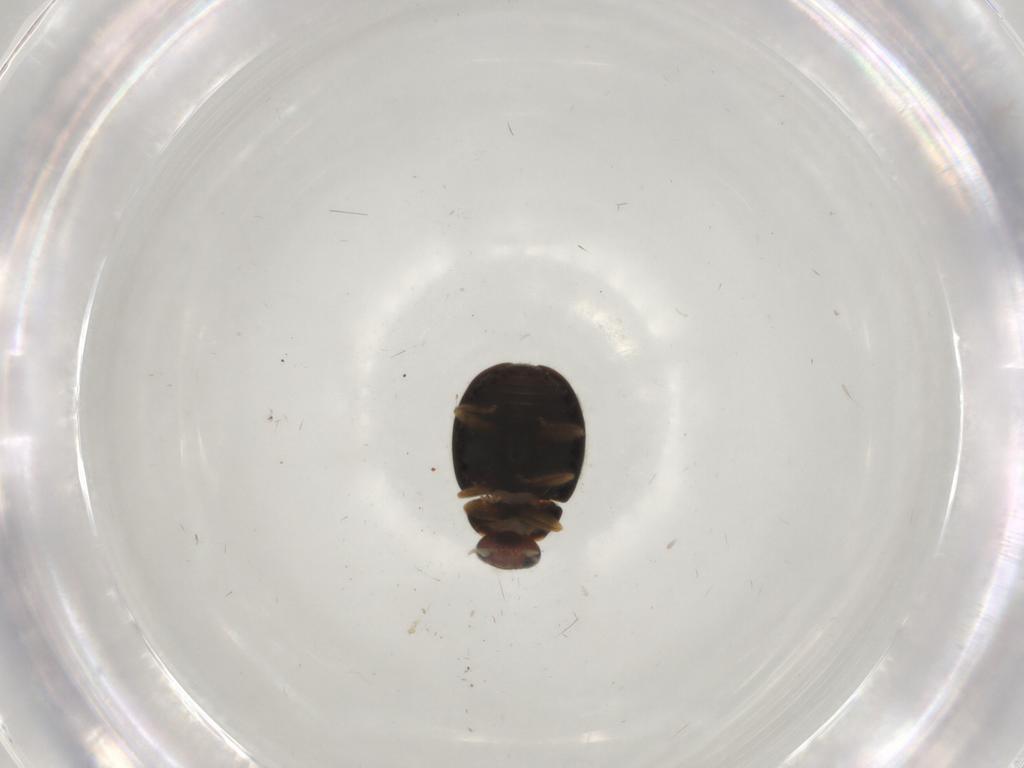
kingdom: Animalia
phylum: Arthropoda
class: Insecta
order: Coleoptera
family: Coccinellidae
